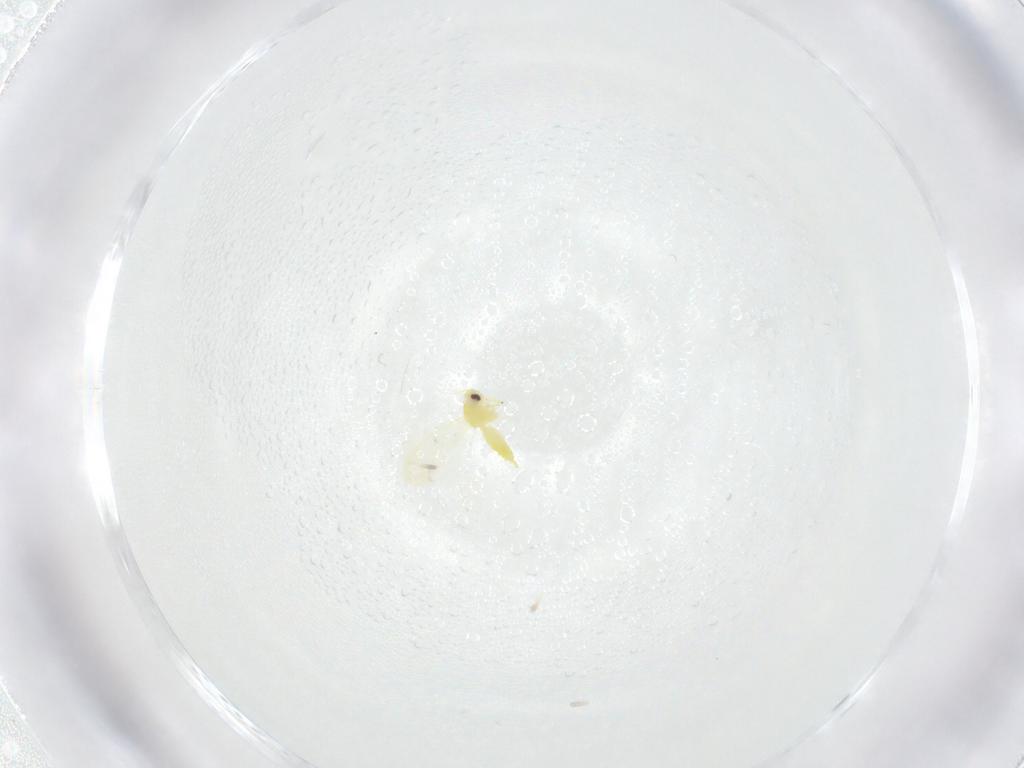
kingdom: Animalia
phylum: Arthropoda
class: Insecta
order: Hemiptera
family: Aleyrodidae
